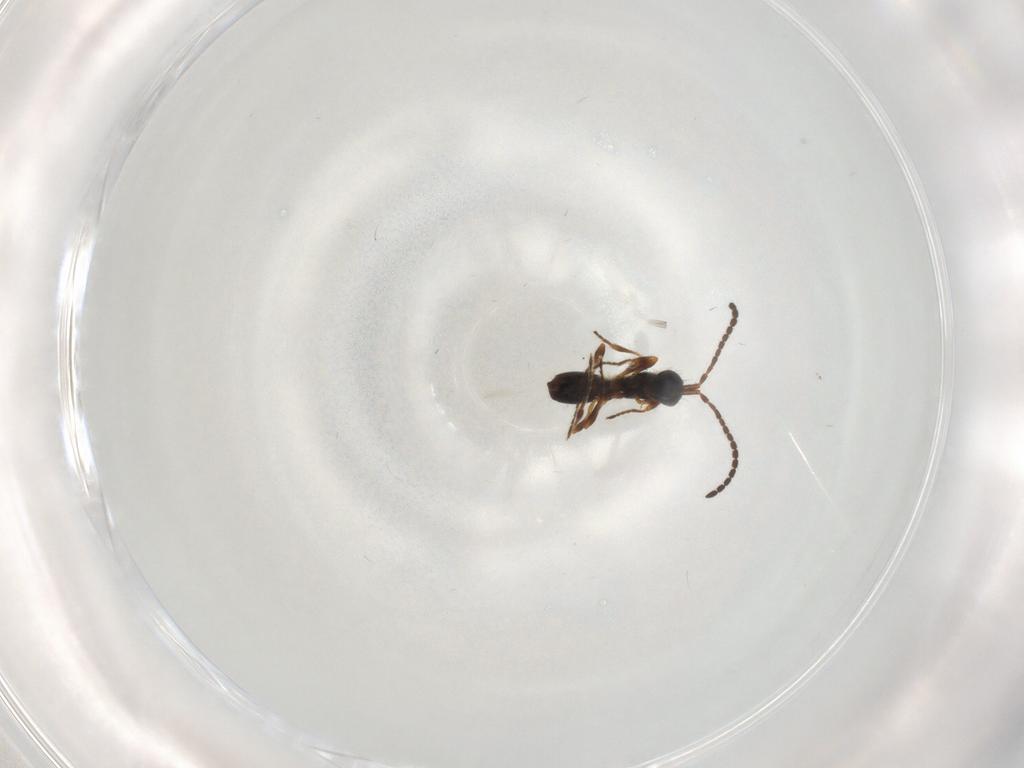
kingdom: Animalia
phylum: Arthropoda
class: Insecta
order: Hymenoptera
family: Diapriidae
